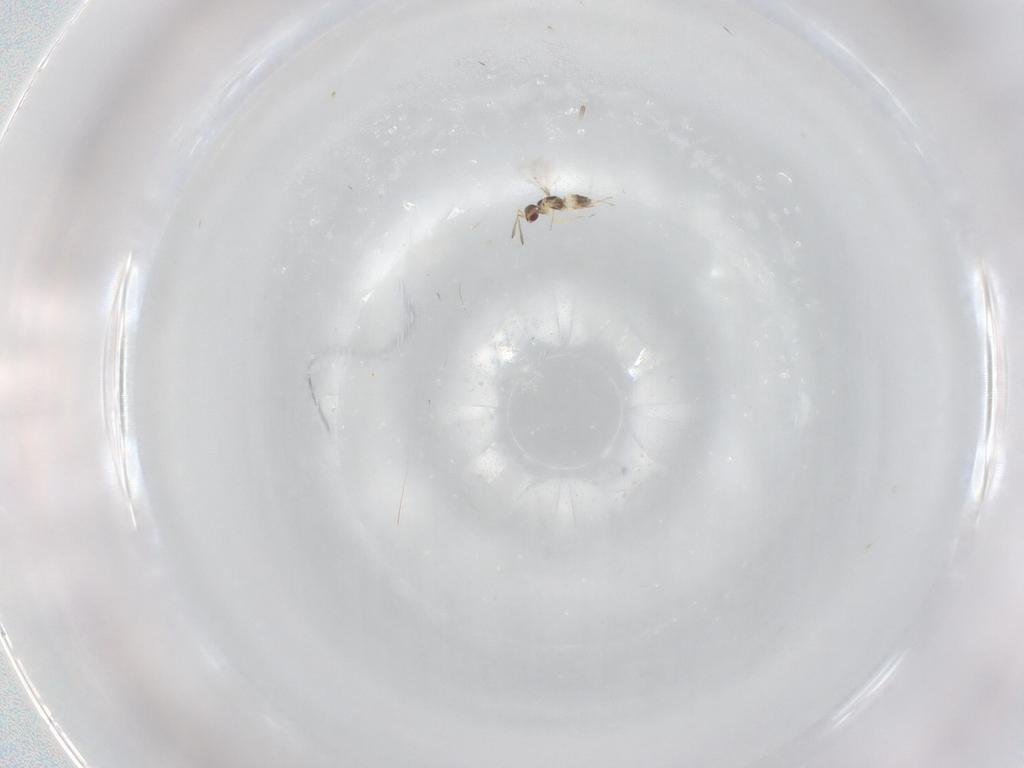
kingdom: Animalia
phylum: Arthropoda
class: Insecta
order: Hymenoptera
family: Mymaridae
